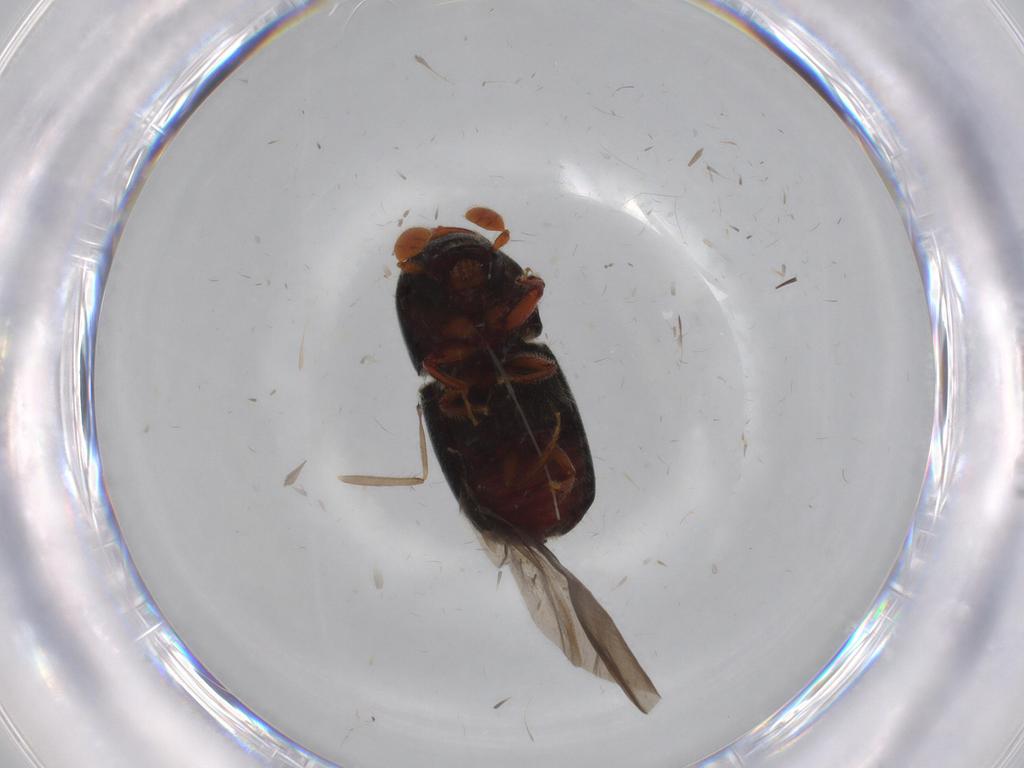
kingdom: Animalia
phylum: Arthropoda
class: Insecta
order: Coleoptera
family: Curculionidae
